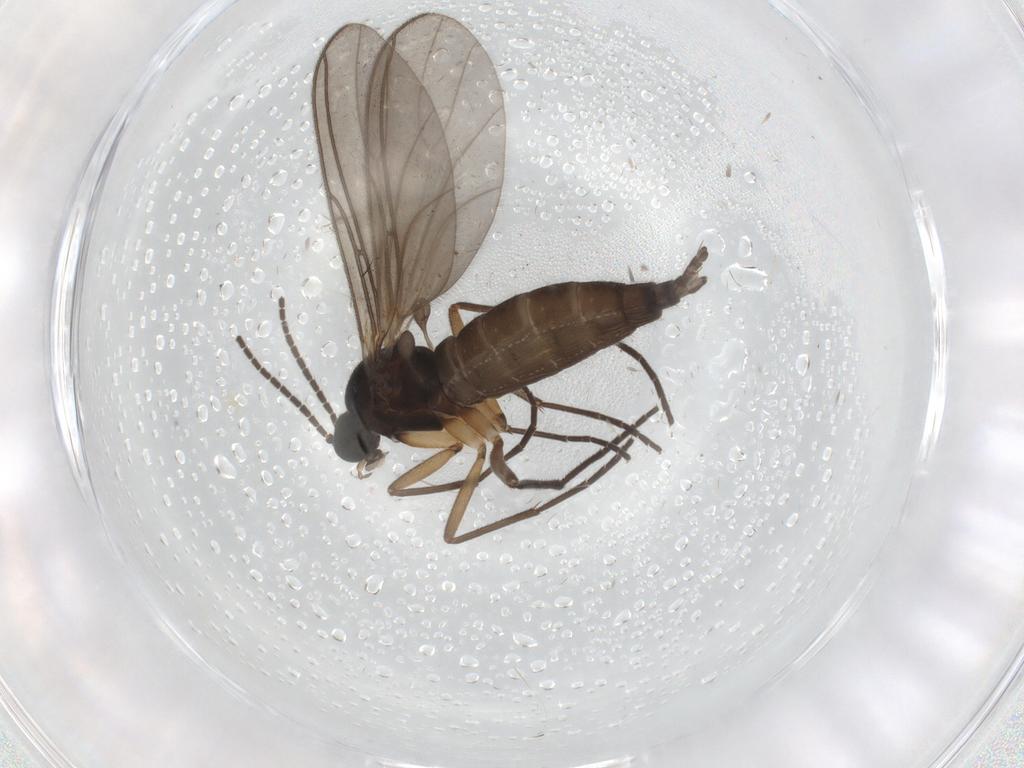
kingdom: Animalia
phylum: Arthropoda
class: Insecta
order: Diptera
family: Sciaridae
